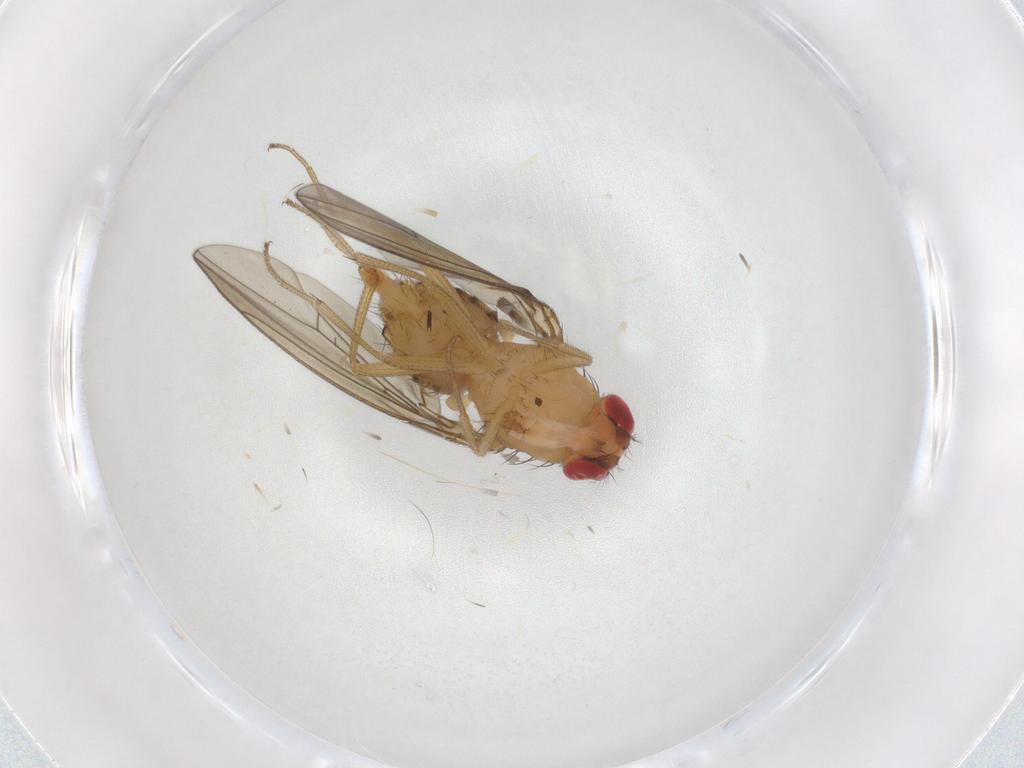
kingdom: Animalia
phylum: Arthropoda
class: Insecta
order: Diptera
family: Drosophilidae
